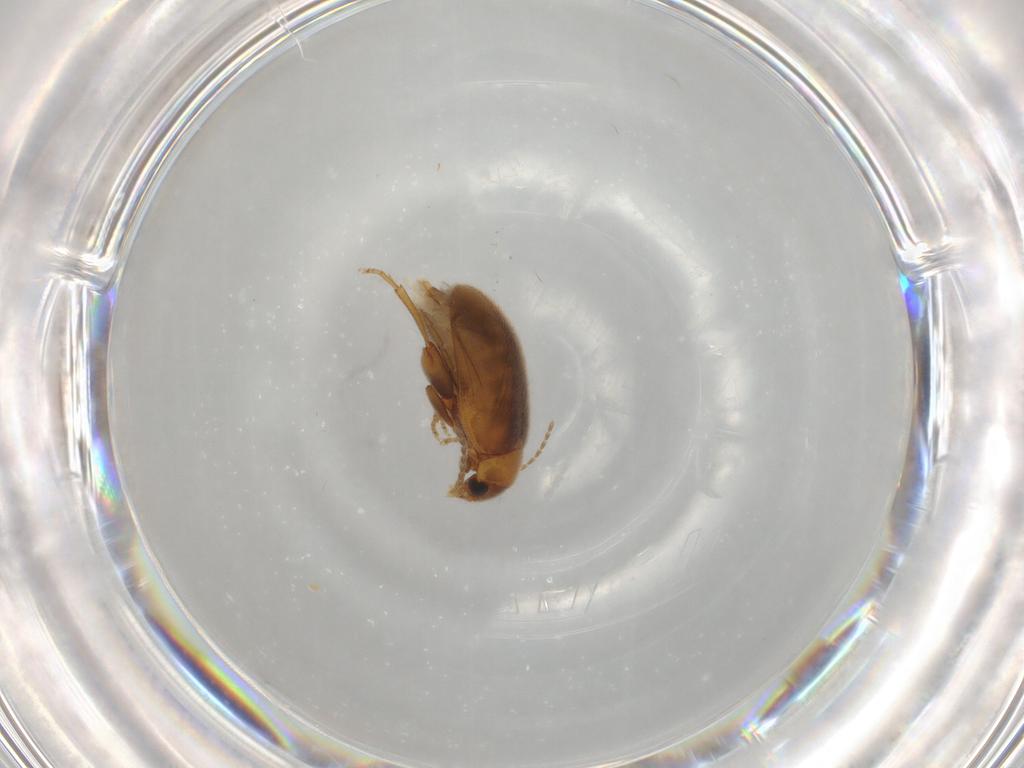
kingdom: Animalia
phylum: Arthropoda
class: Insecta
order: Coleoptera
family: Scirtidae
